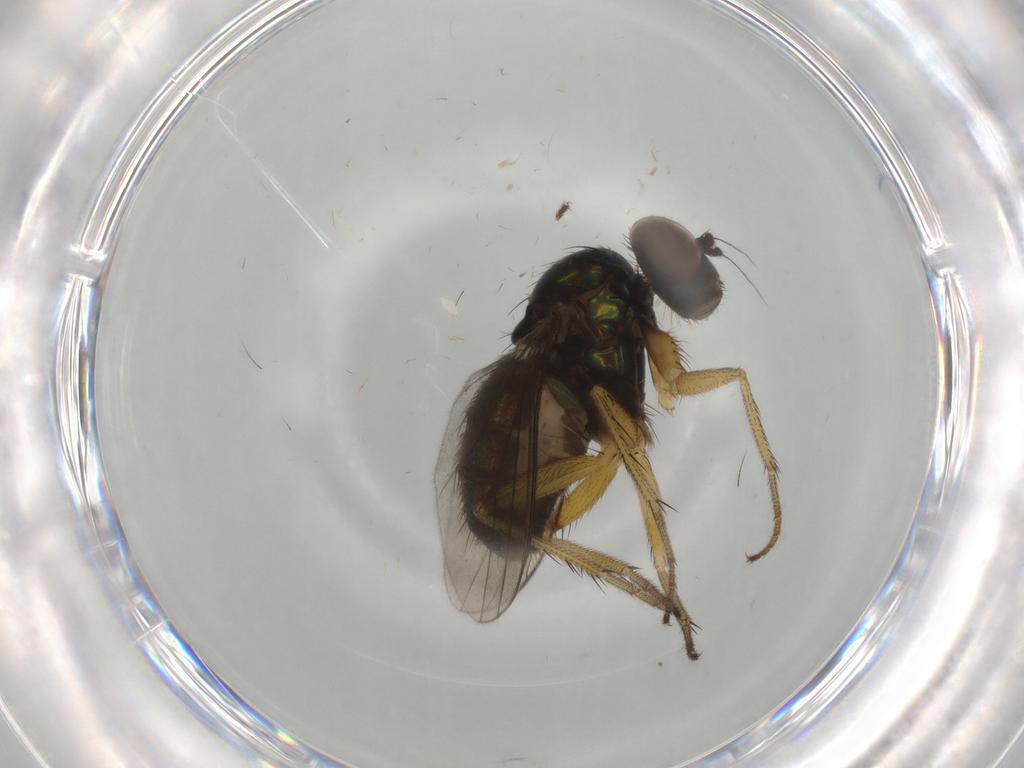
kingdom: Animalia
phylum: Arthropoda
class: Insecta
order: Diptera
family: Dolichopodidae
